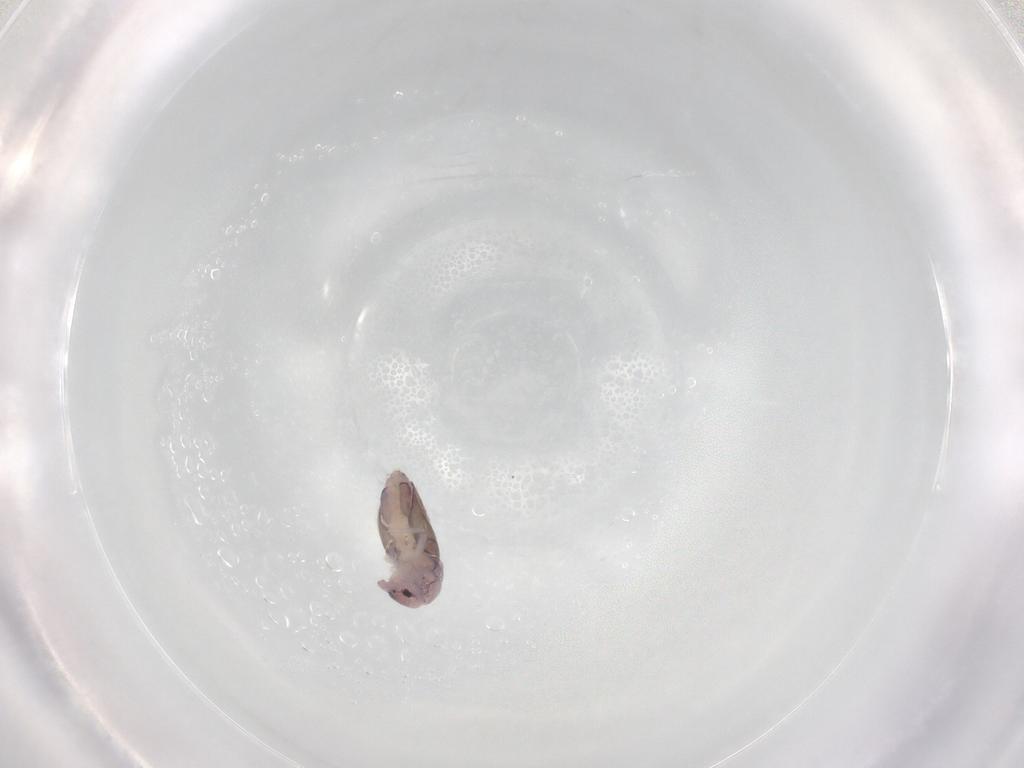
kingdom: Animalia
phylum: Arthropoda
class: Collembola
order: Entomobryomorpha
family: Entomobryidae
